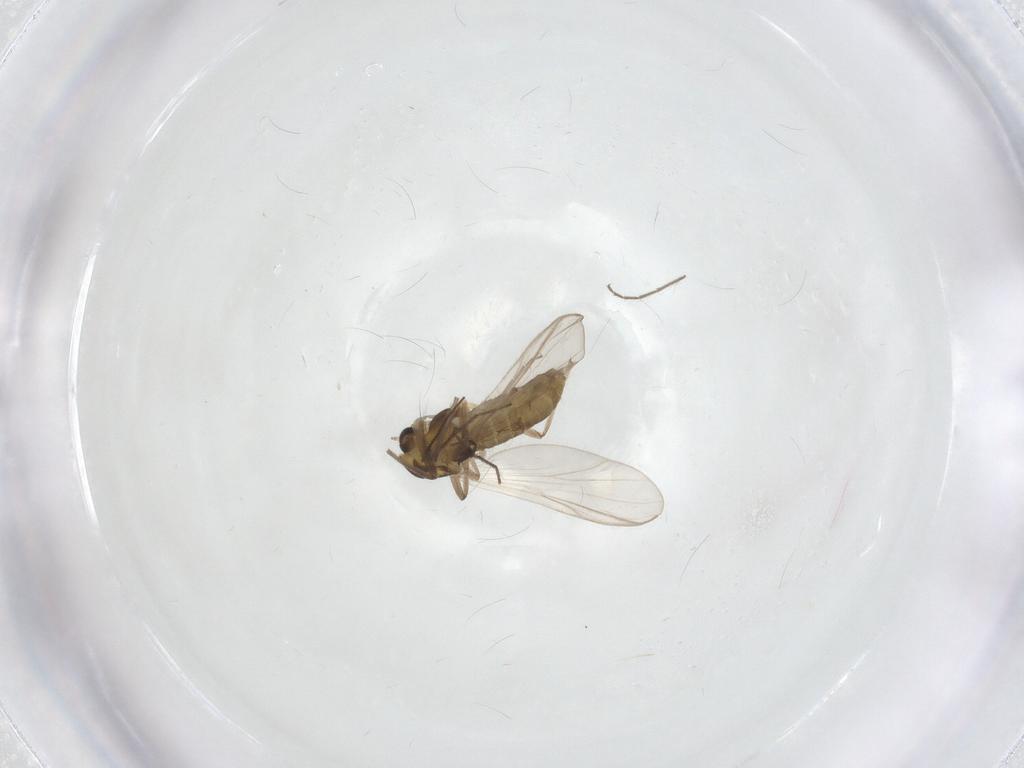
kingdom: Animalia
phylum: Arthropoda
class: Insecta
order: Diptera
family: Chironomidae
